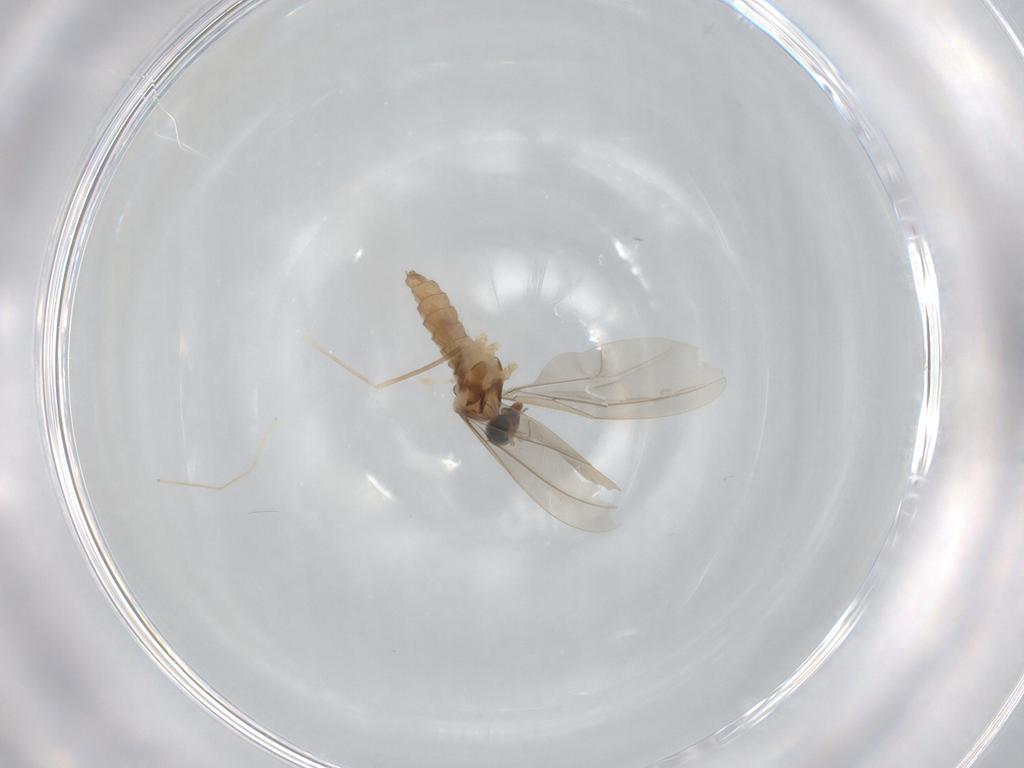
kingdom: Animalia
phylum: Arthropoda
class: Insecta
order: Diptera
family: Cecidomyiidae
